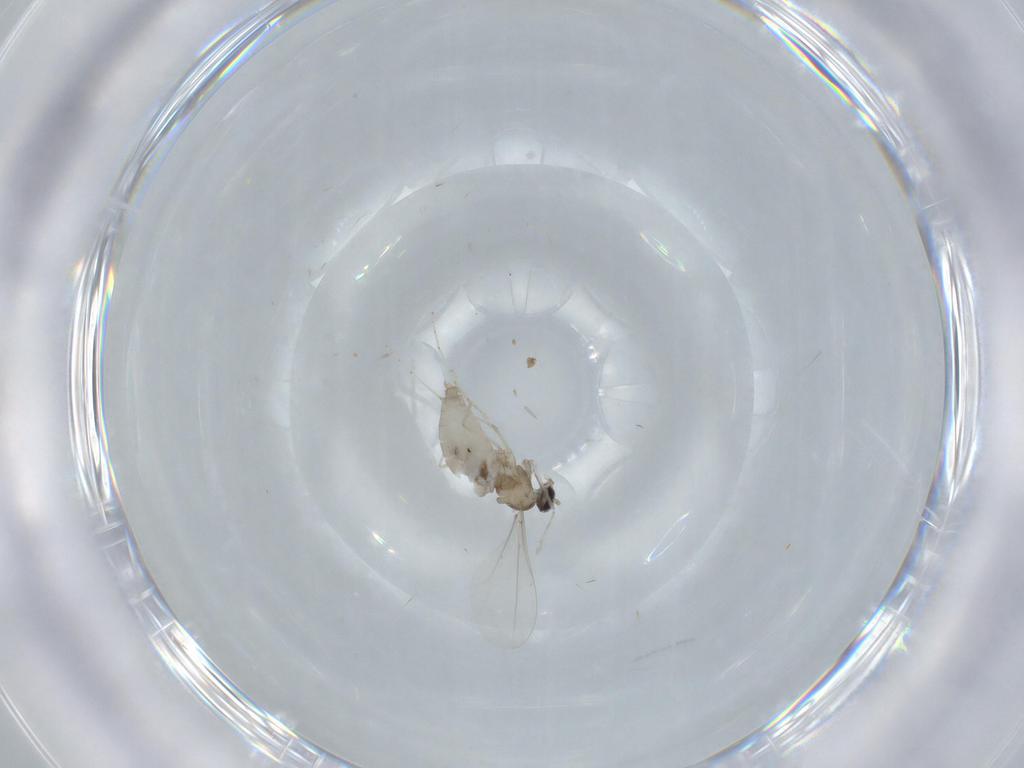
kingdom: Animalia
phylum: Arthropoda
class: Insecta
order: Diptera
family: Cecidomyiidae
